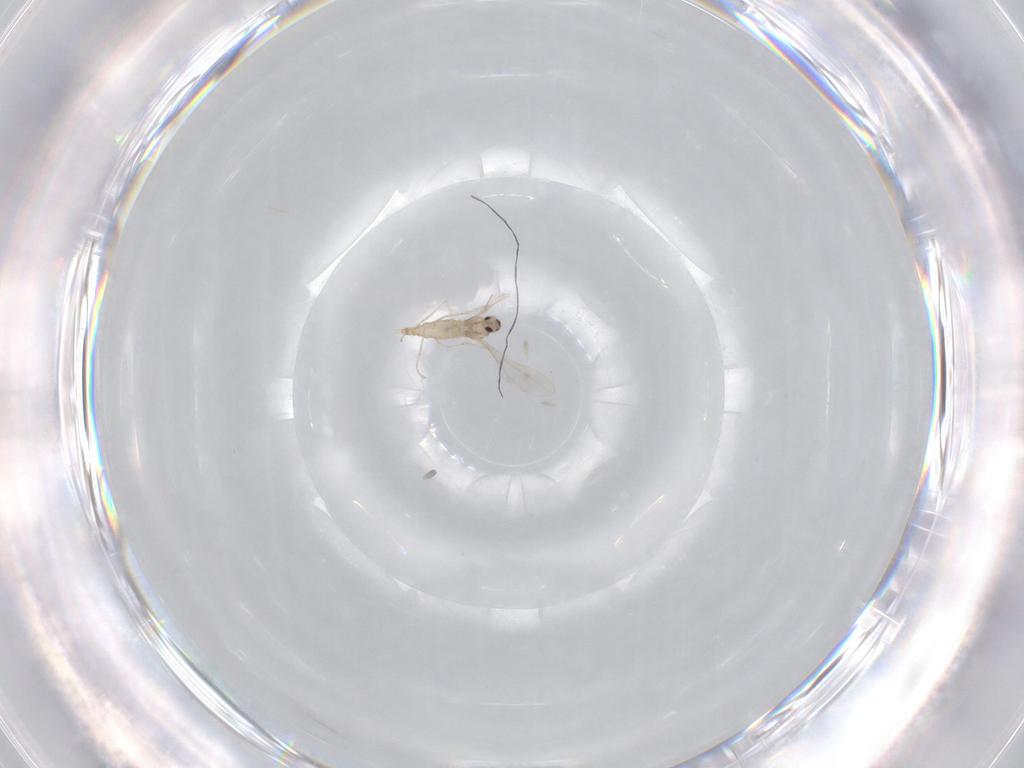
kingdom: Animalia
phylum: Arthropoda
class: Insecta
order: Diptera
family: Cecidomyiidae
